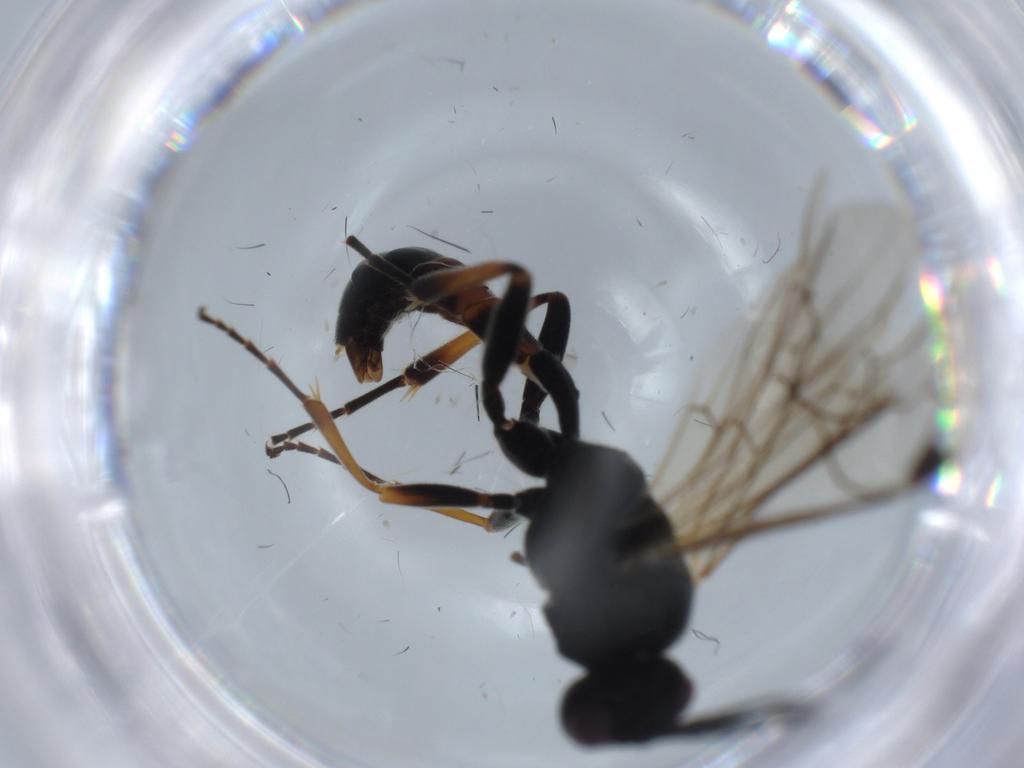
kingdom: Animalia
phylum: Arthropoda
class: Insecta
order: Hymenoptera
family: Ichneumonidae
